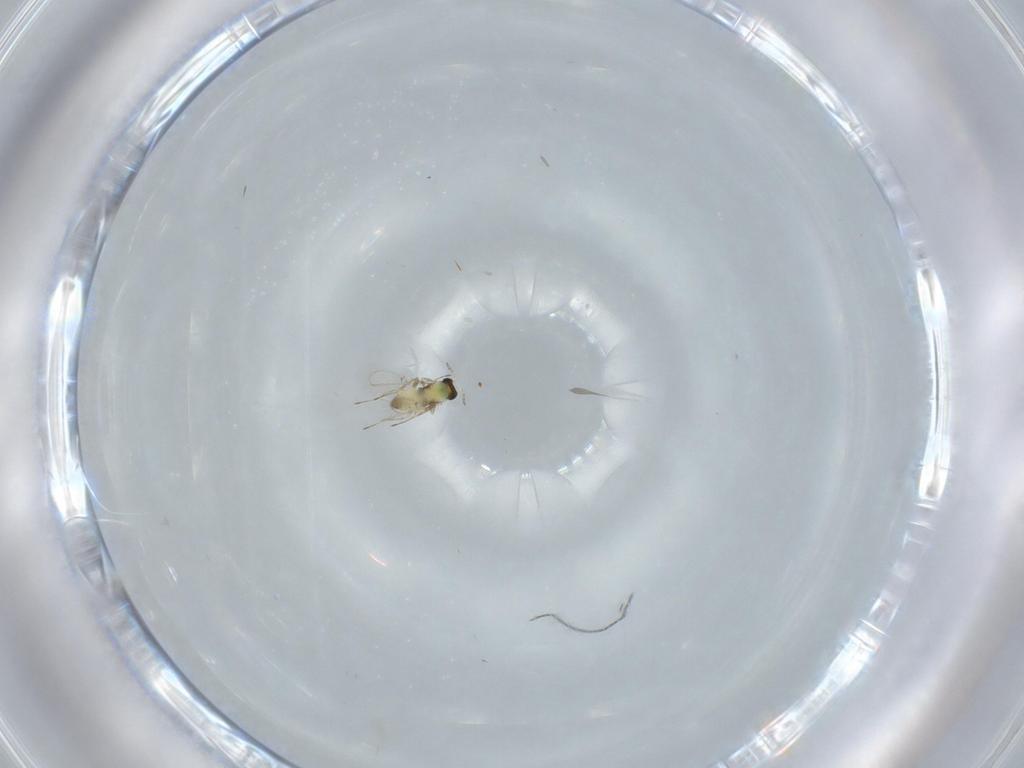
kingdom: Animalia
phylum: Arthropoda
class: Insecta
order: Hymenoptera
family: Trichogrammatidae
